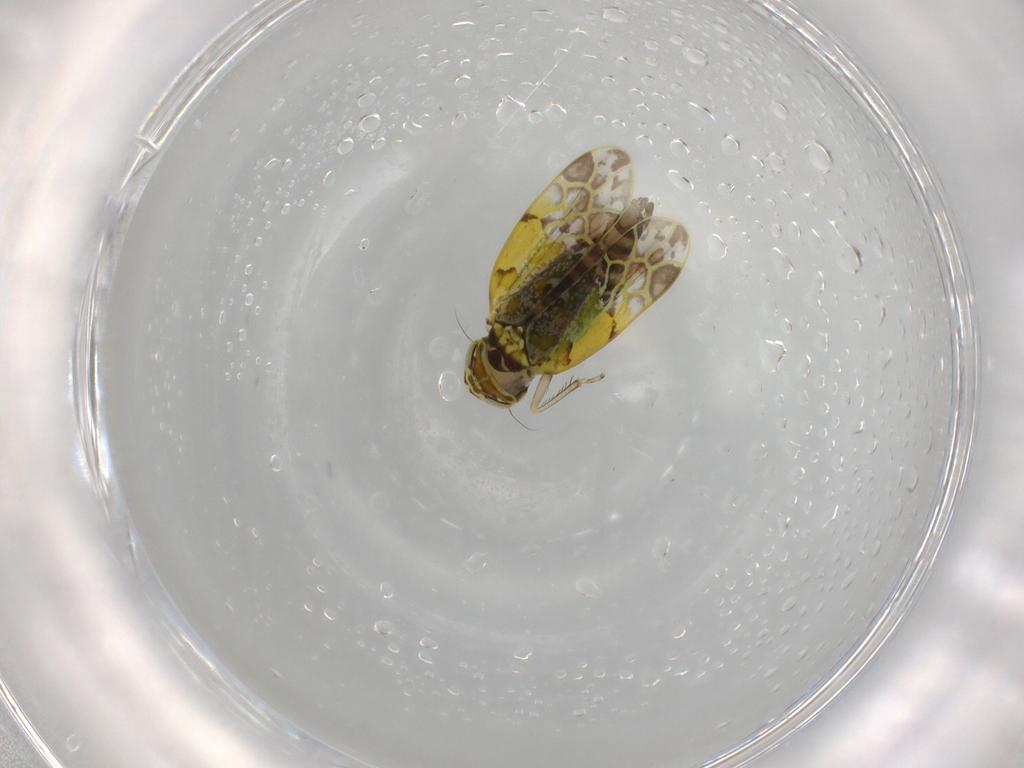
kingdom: Animalia
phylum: Arthropoda
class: Insecta
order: Hemiptera
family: Cicadellidae
